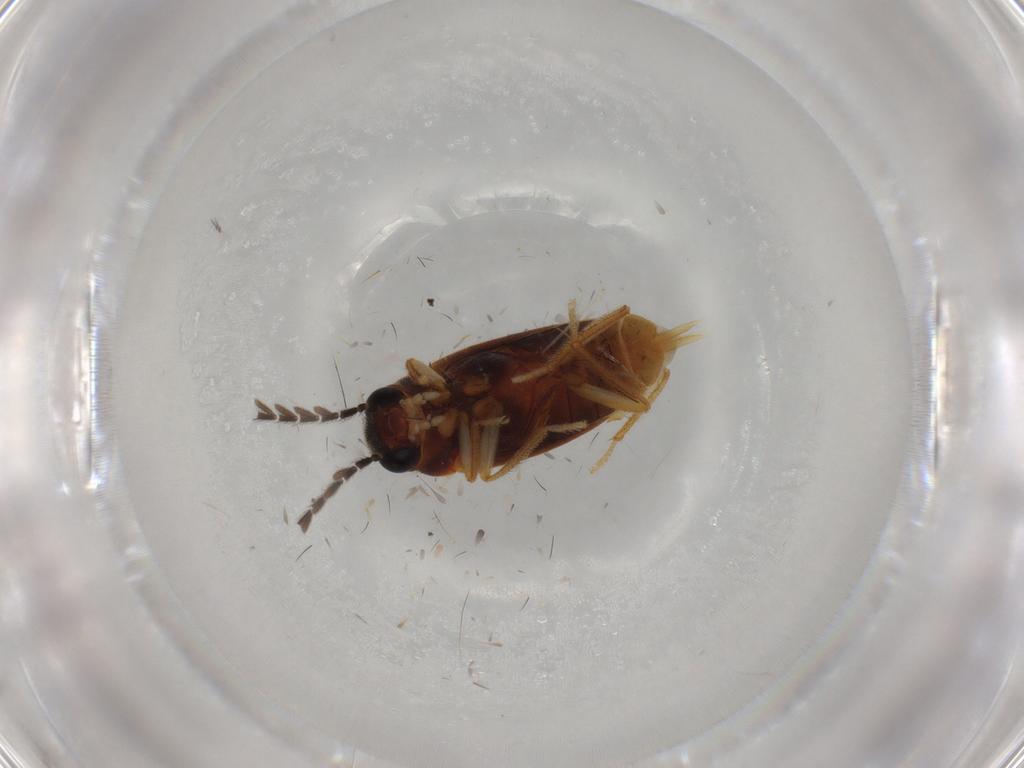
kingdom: Animalia
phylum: Arthropoda
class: Insecta
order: Coleoptera
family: Ptilodactylidae
